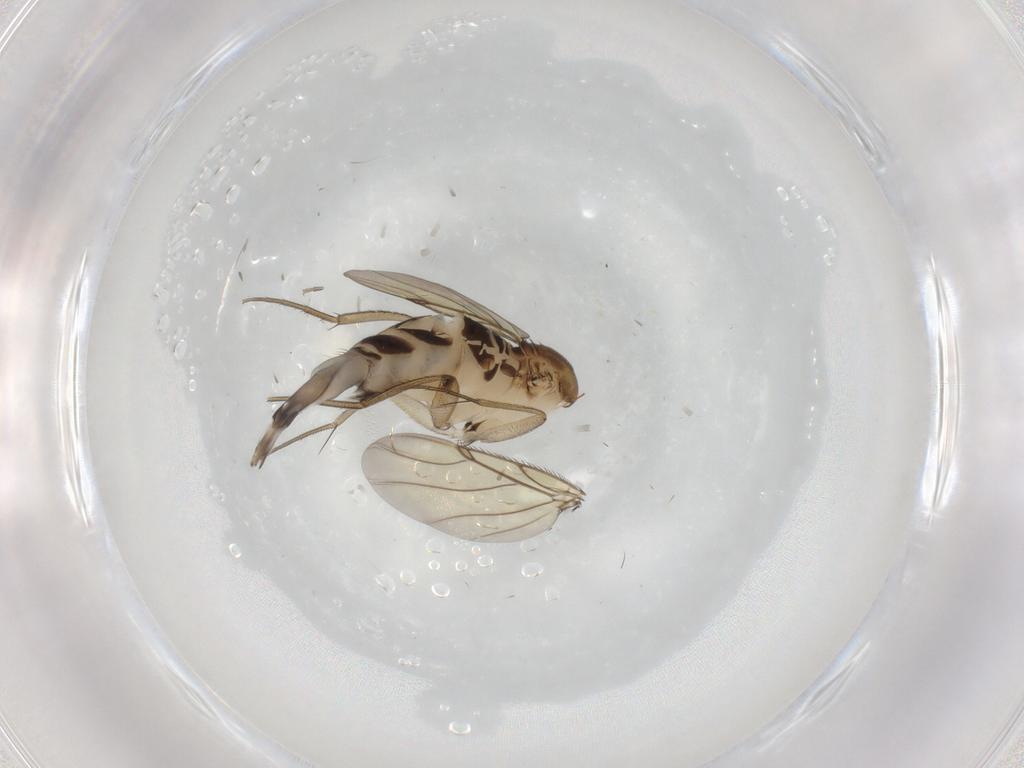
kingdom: Animalia
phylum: Arthropoda
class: Insecta
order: Diptera
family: Phoridae
